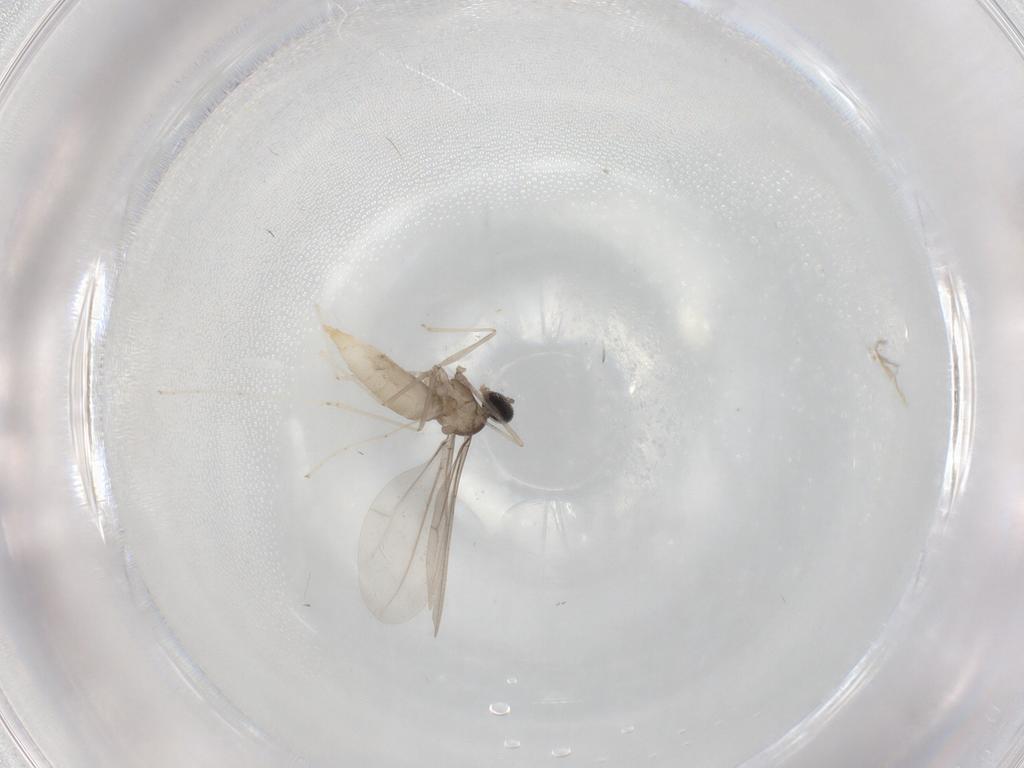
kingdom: Animalia
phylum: Arthropoda
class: Insecta
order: Diptera
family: Cecidomyiidae
